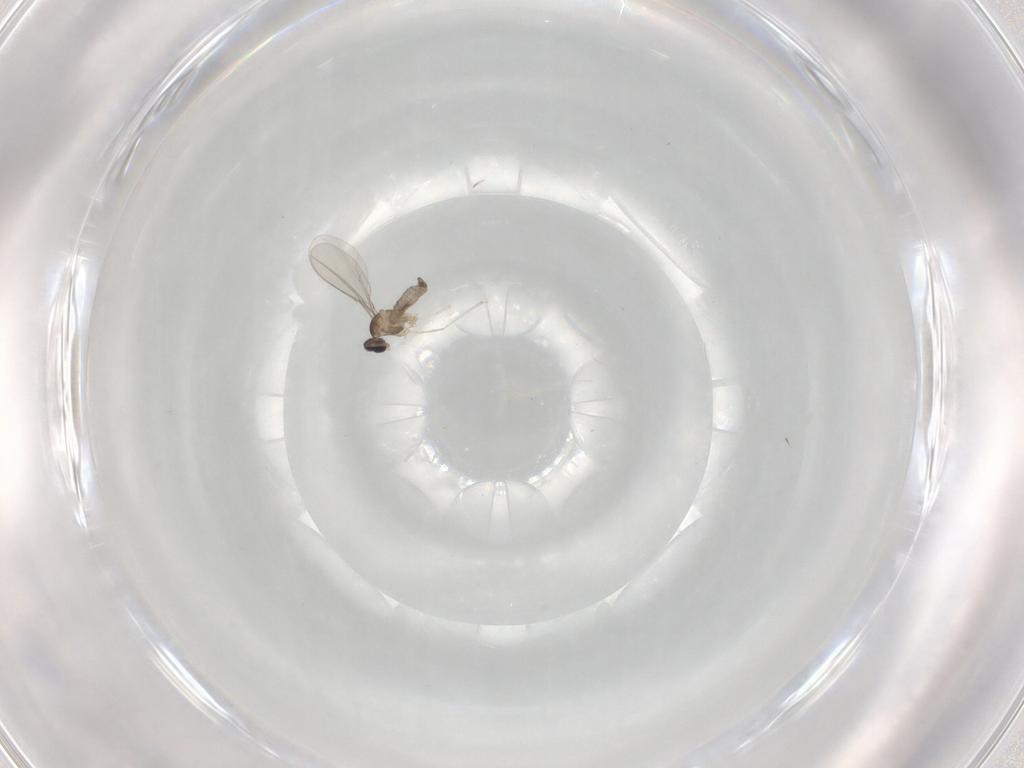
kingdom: Animalia
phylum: Arthropoda
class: Insecta
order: Diptera
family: Cecidomyiidae
